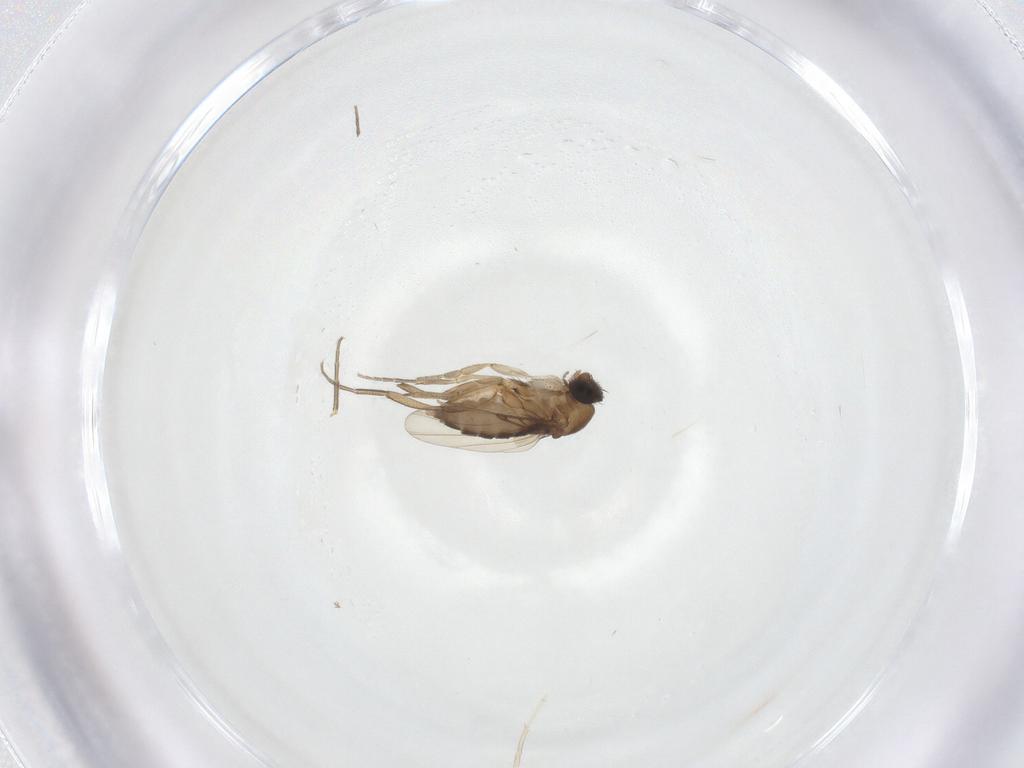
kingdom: Animalia
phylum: Arthropoda
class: Insecta
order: Diptera
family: Phoridae
